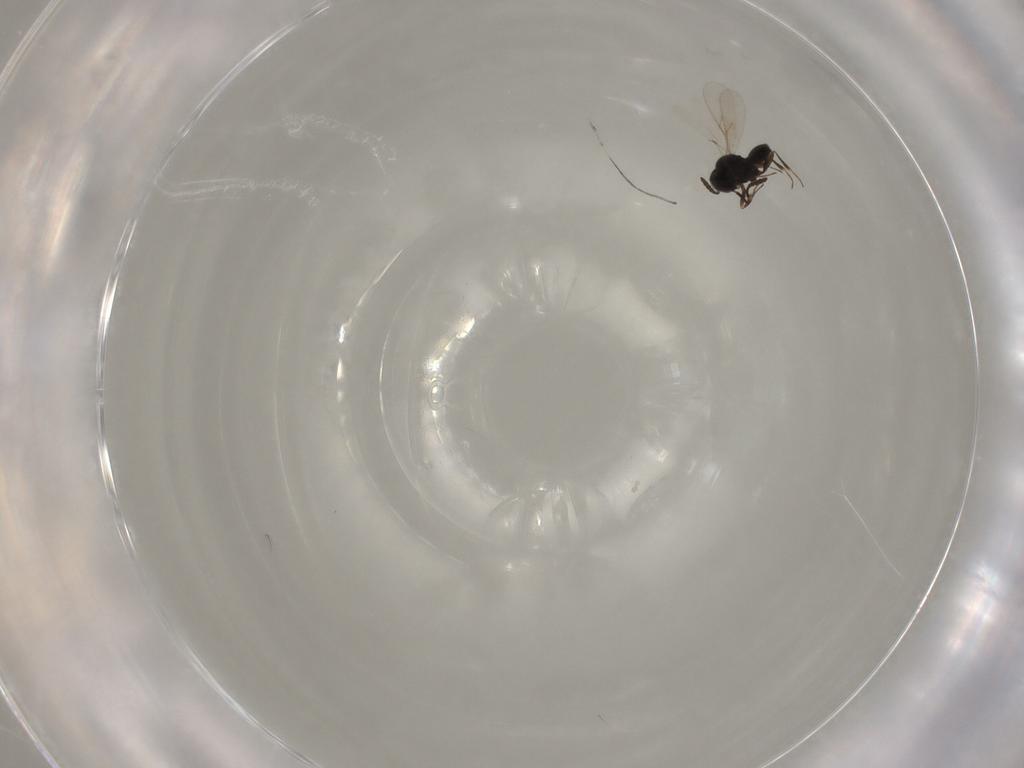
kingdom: Animalia
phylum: Arthropoda
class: Insecta
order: Hymenoptera
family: Scelionidae
